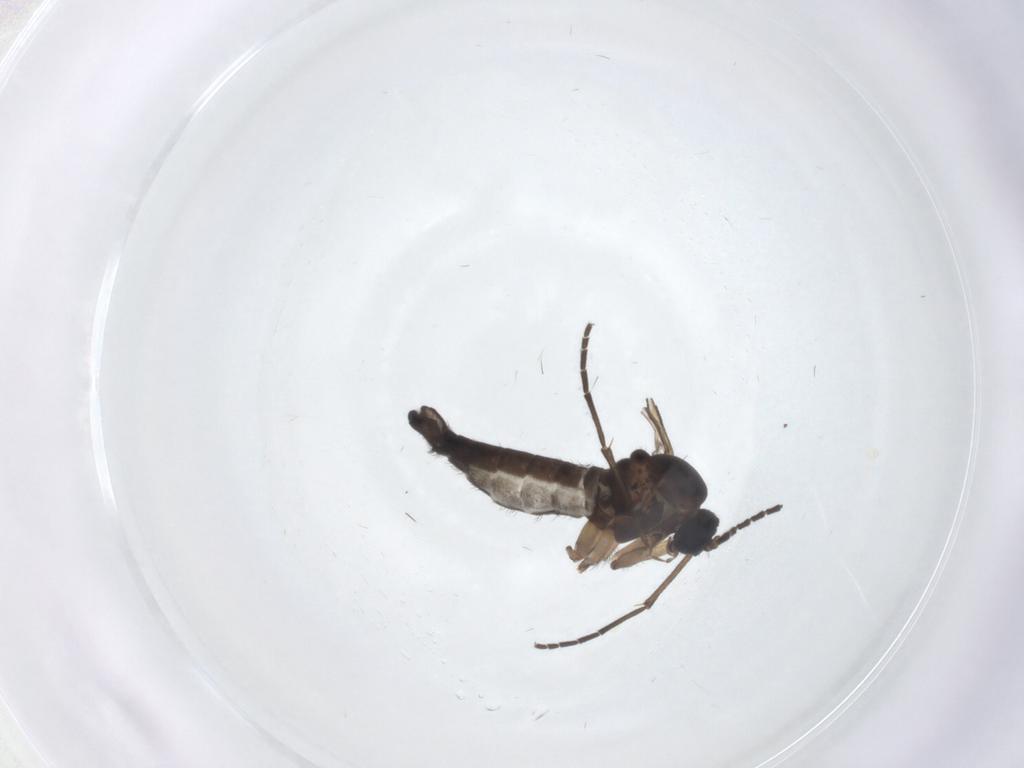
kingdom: Animalia
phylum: Arthropoda
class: Insecta
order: Diptera
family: Sciaridae
